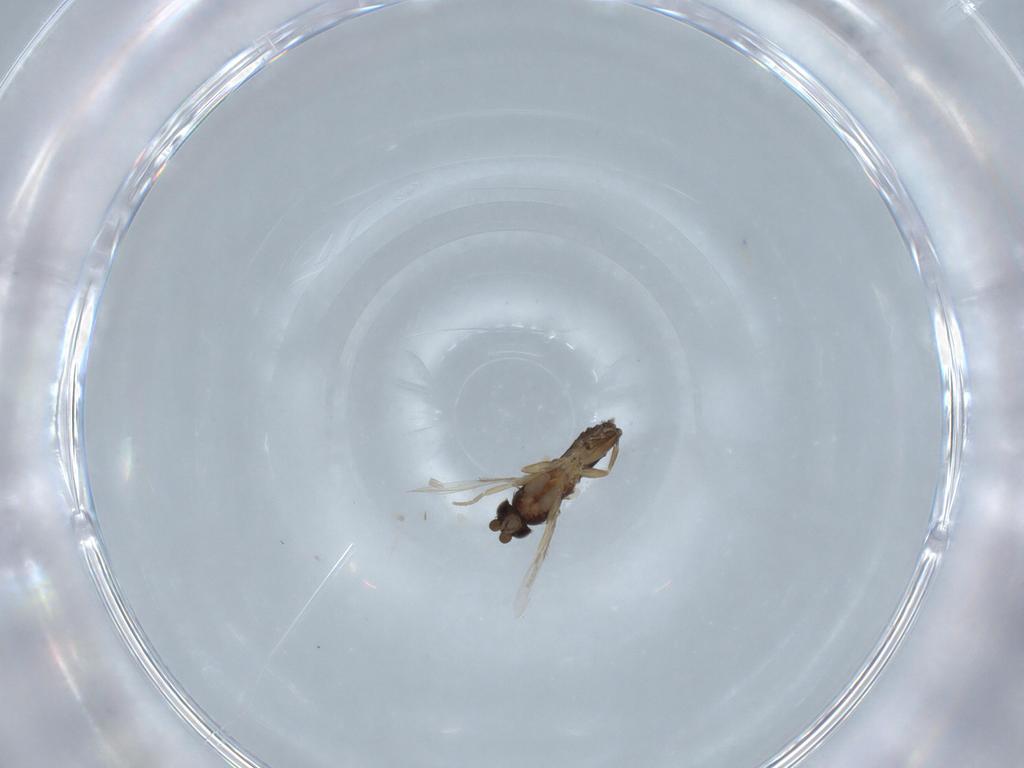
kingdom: Animalia
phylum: Arthropoda
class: Insecta
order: Diptera
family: Phoridae
